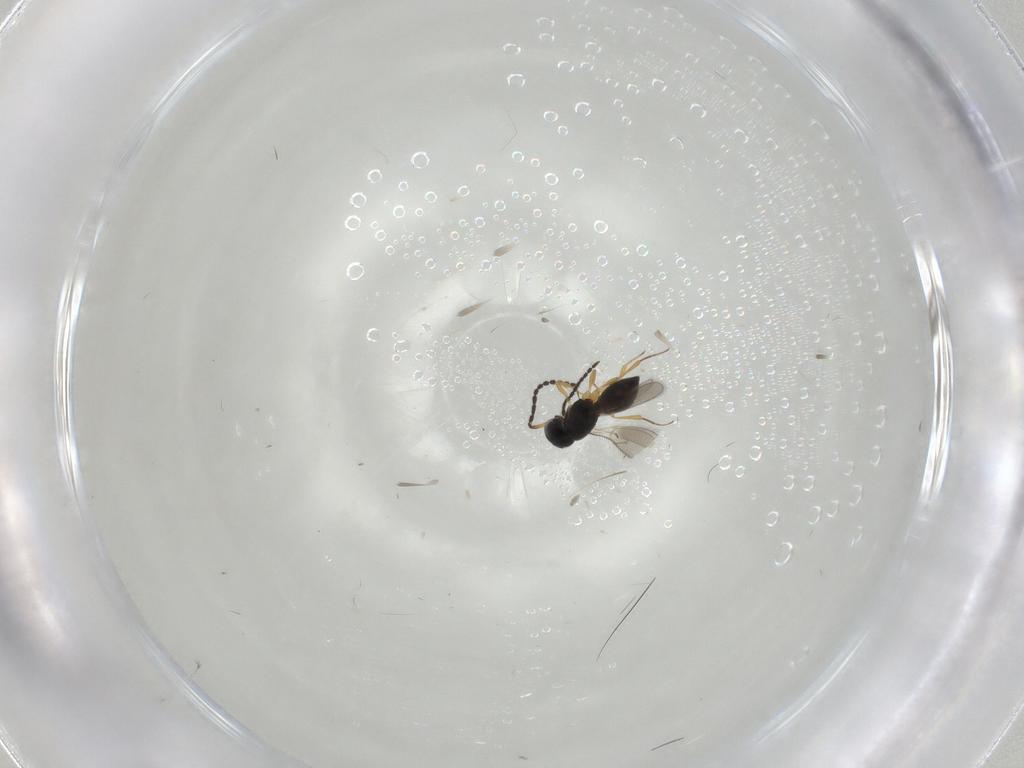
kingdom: Animalia
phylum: Arthropoda
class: Insecta
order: Hymenoptera
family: Scelionidae
